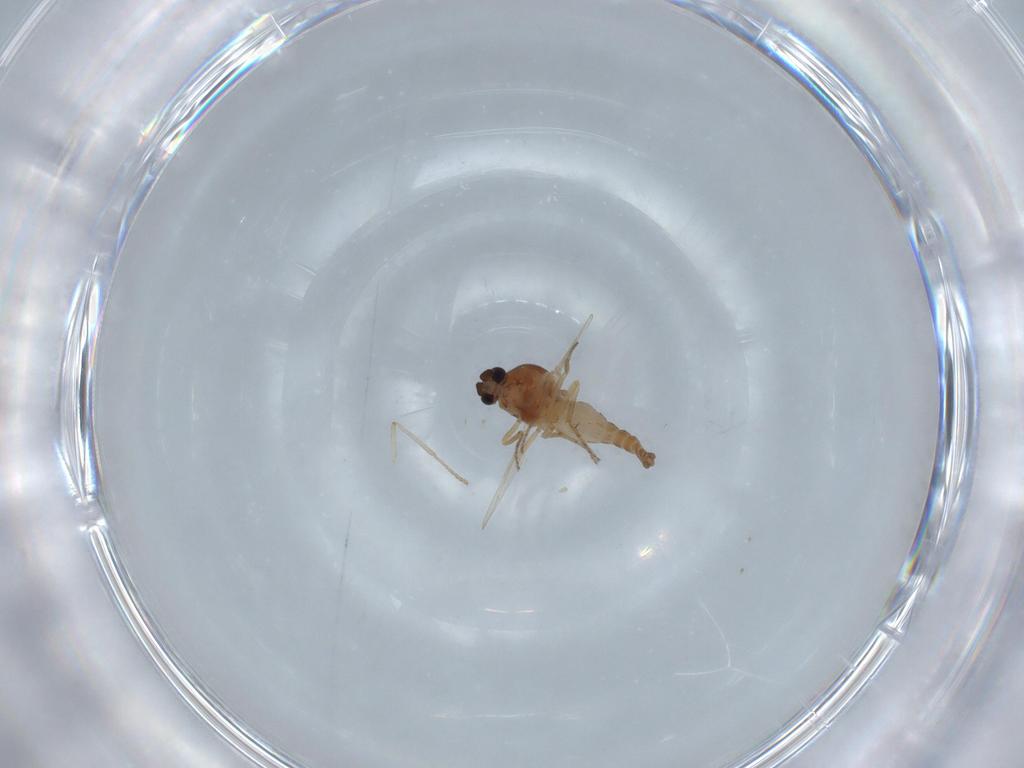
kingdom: Animalia
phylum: Arthropoda
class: Insecta
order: Diptera
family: Ceratopogonidae
